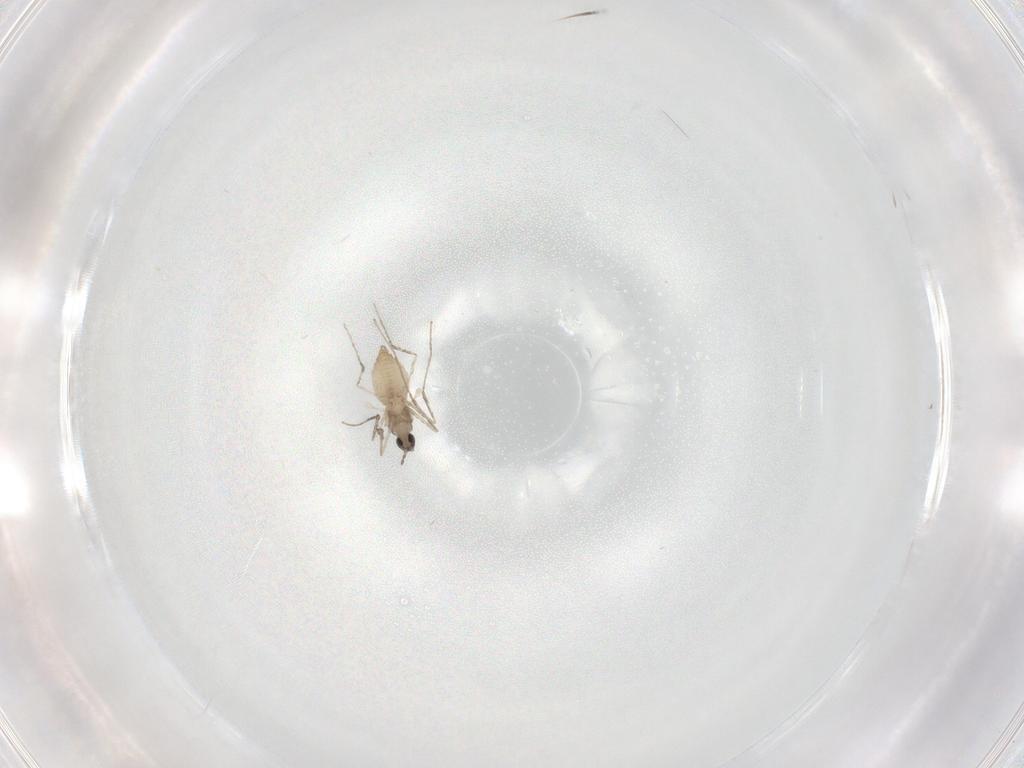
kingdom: Animalia
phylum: Arthropoda
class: Insecta
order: Diptera
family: Cecidomyiidae
